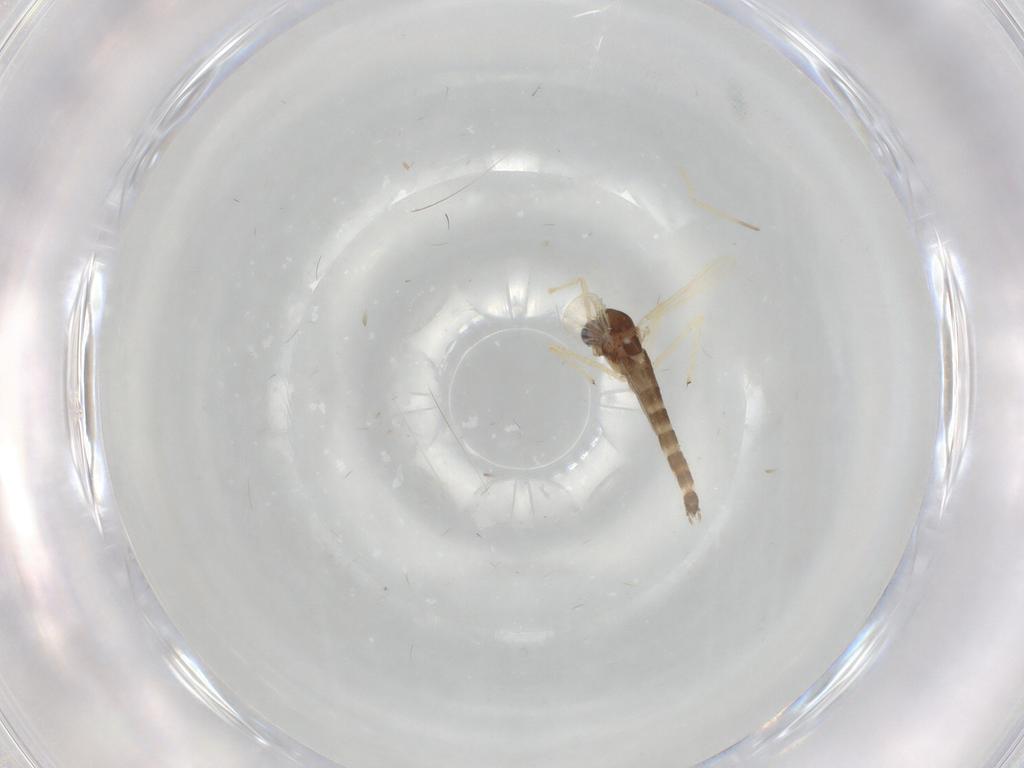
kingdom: Animalia
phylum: Arthropoda
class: Insecta
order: Diptera
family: Chironomidae
